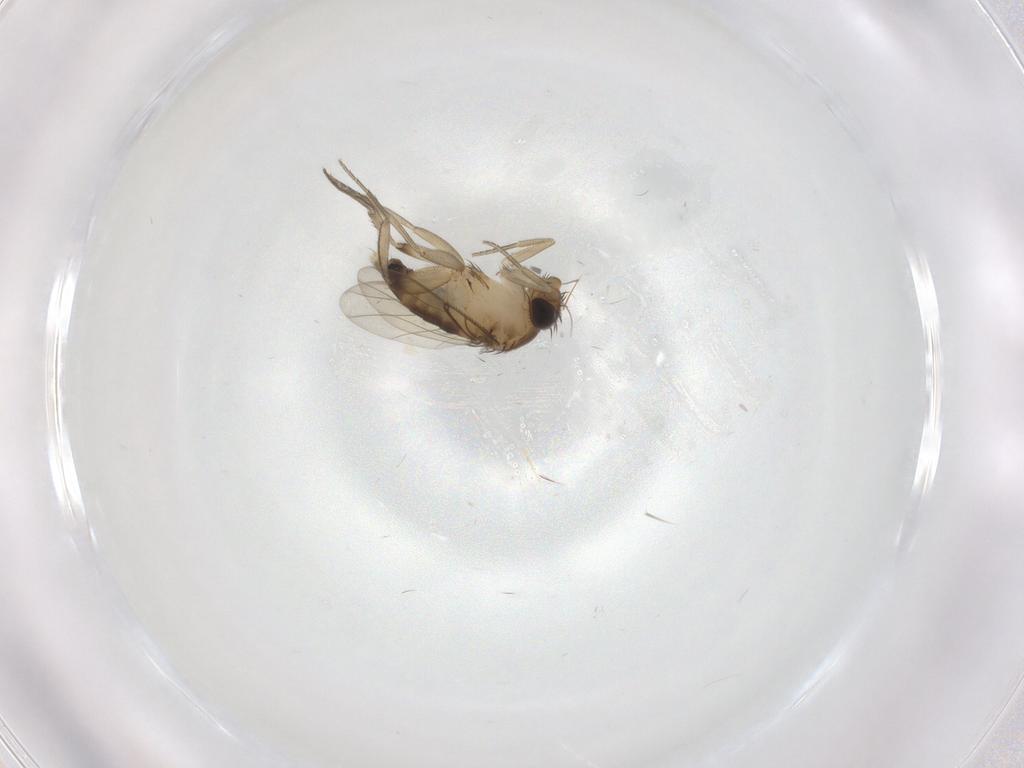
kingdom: Animalia
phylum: Arthropoda
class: Insecta
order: Diptera
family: Phoridae
